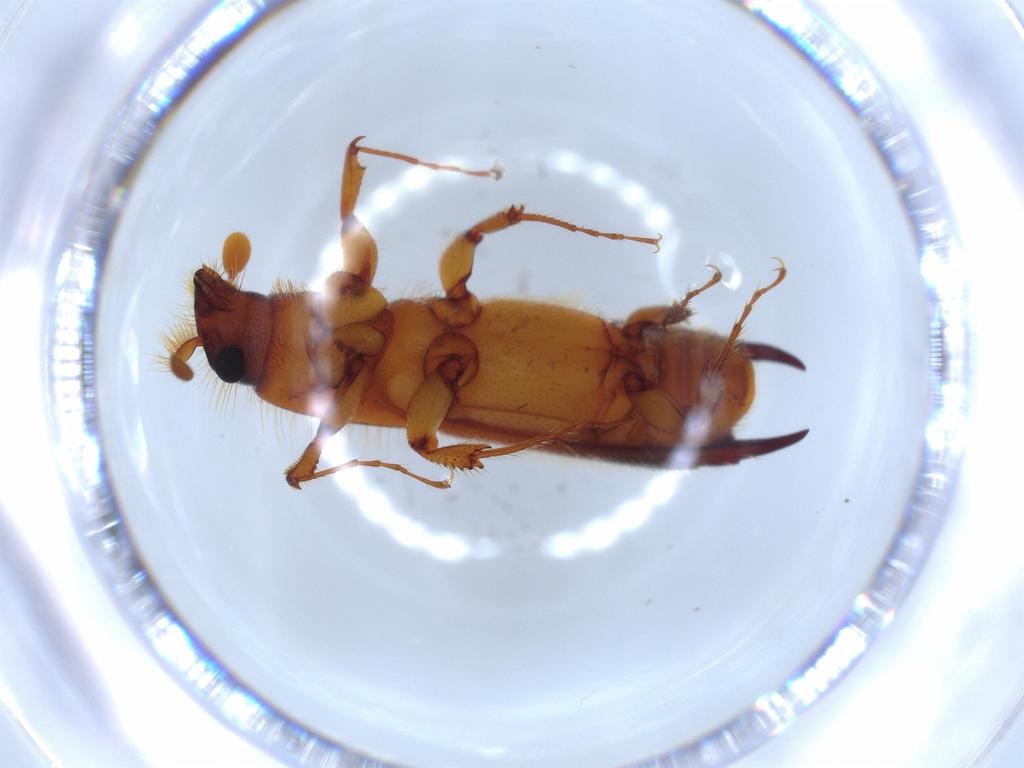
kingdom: Animalia
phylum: Arthropoda
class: Insecta
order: Coleoptera
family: Curculionidae
